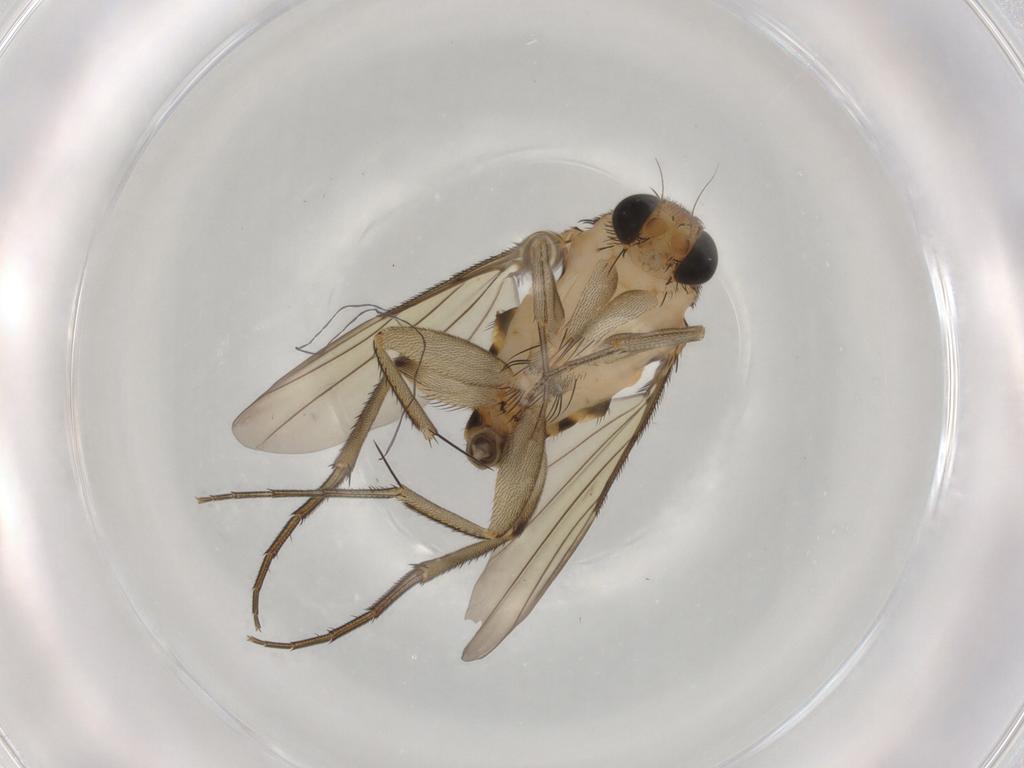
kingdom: Animalia
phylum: Arthropoda
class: Insecta
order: Diptera
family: Phoridae
